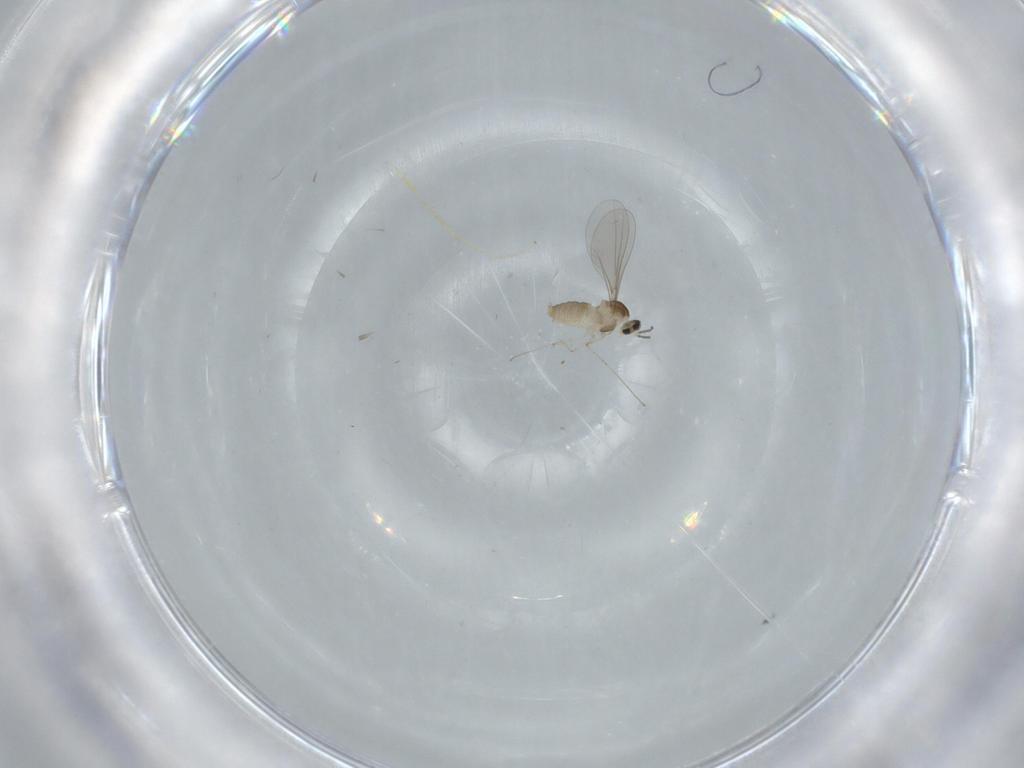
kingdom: Animalia
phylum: Arthropoda
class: Insecta
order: Diptera
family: Cecidomyiidae
